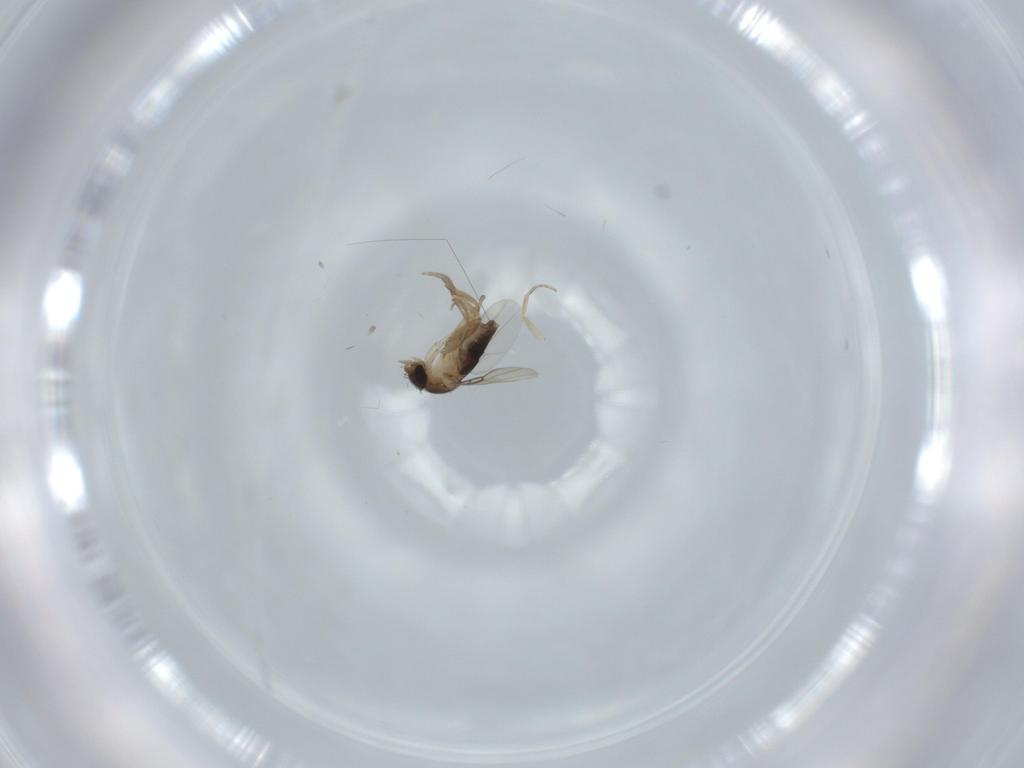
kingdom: Animalia
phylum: Arthropoda
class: Insecta
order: Diptera
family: Phoridae
